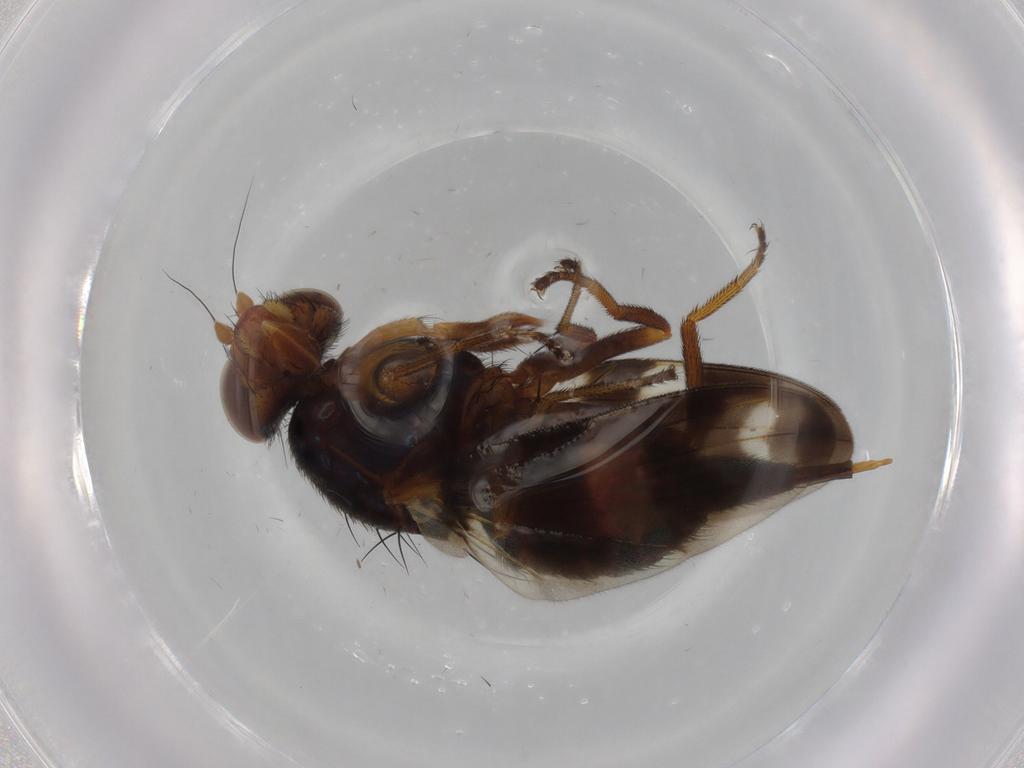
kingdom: Animalia
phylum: Arthropoda
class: Insecta
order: Diptera
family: Ulidiidae
